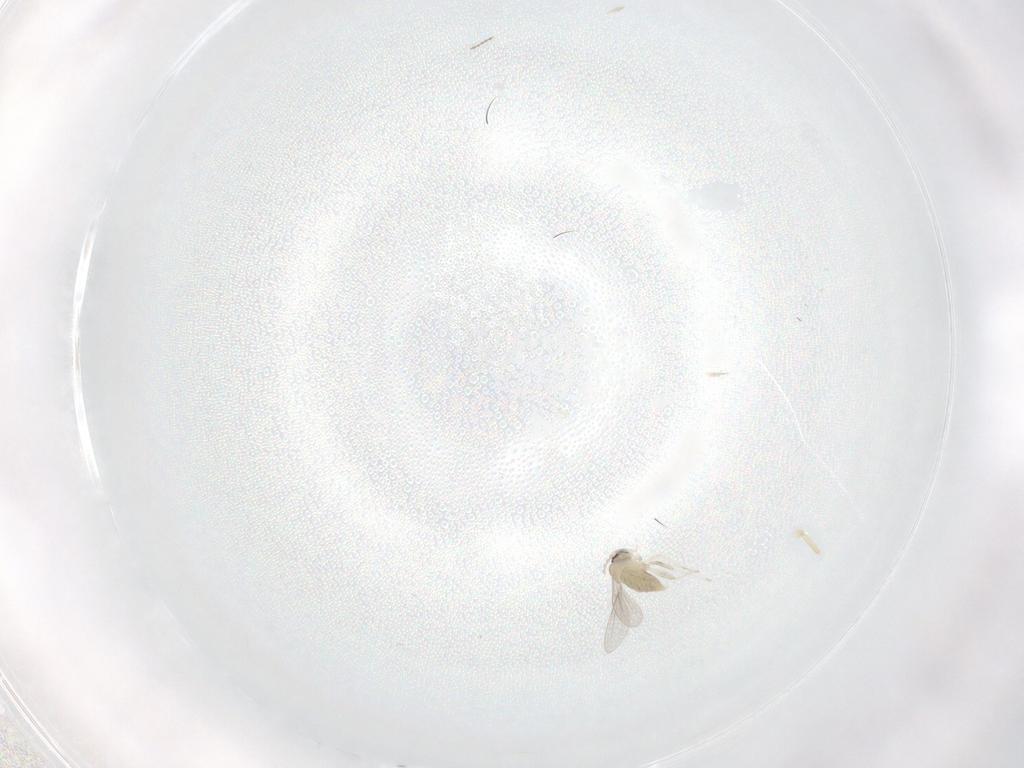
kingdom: Animalia
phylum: Arthropoda
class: Insecta
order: Diptera
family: Cecidomyiidae
